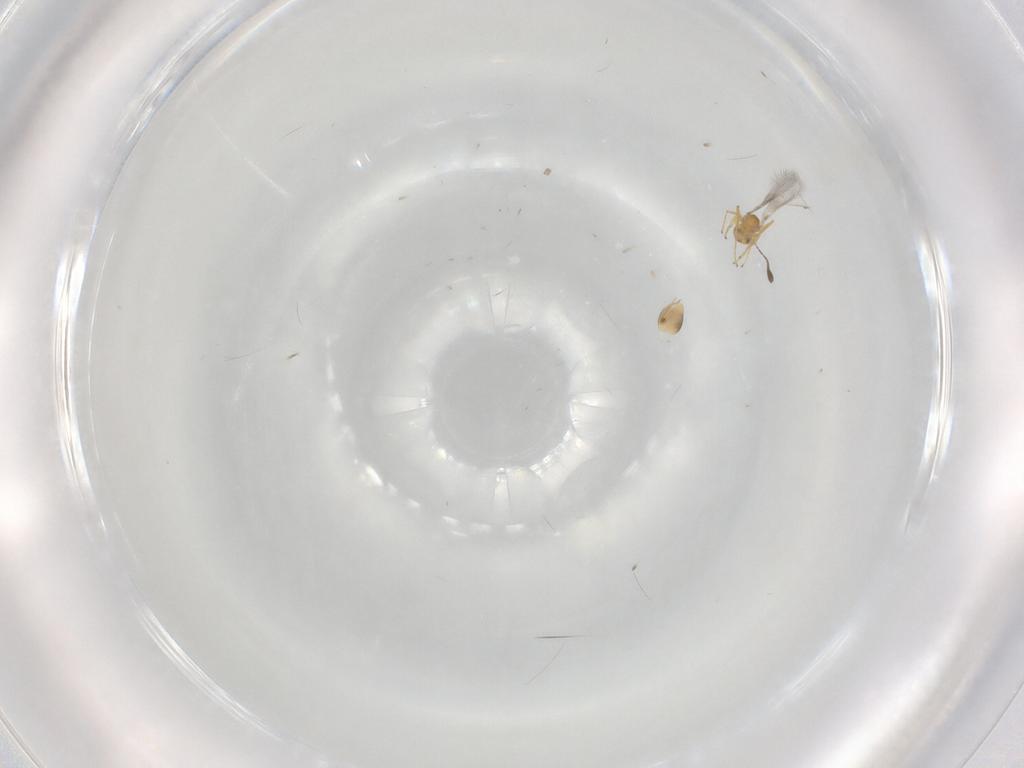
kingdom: Animalia
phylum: Arthropoda
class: Insecta
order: Hymenoptera
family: Mymaridae
